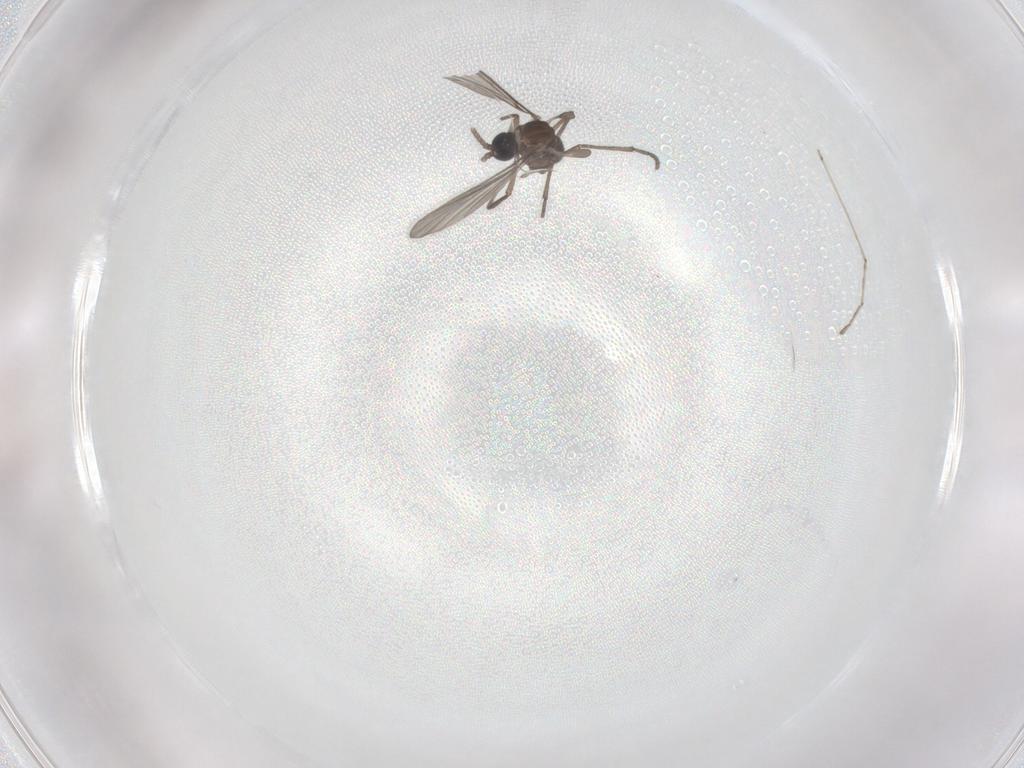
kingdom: Animalia
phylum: Arthropoda
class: Insecta
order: Diptera
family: Sciaridae
